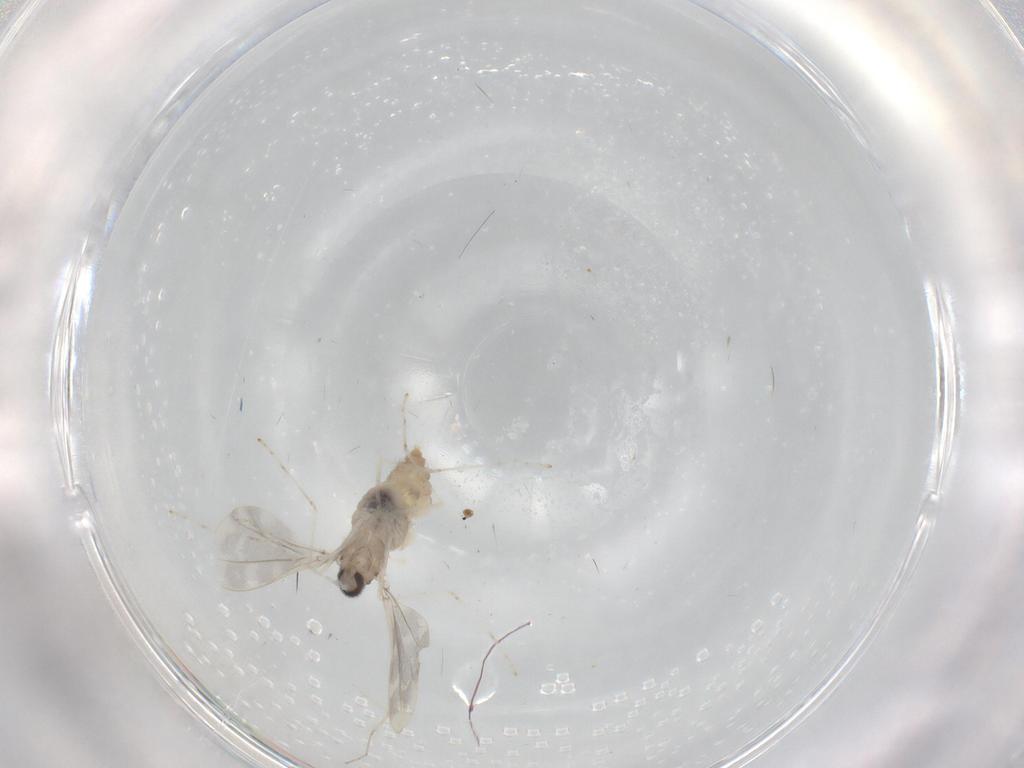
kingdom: Animalia
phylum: Arthropoda
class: Insecta
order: Diptera
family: Cecidomyiidae
